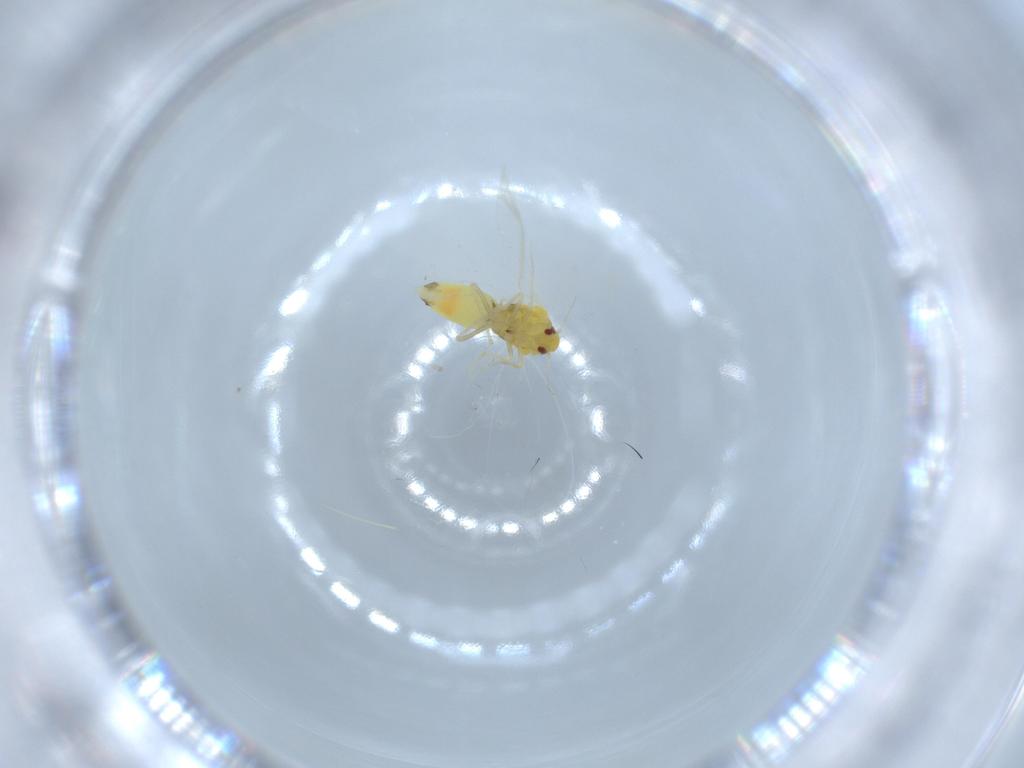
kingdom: Animalia
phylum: Arthropoda
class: Insecta
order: Hemiptera
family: Aleyrodidae
